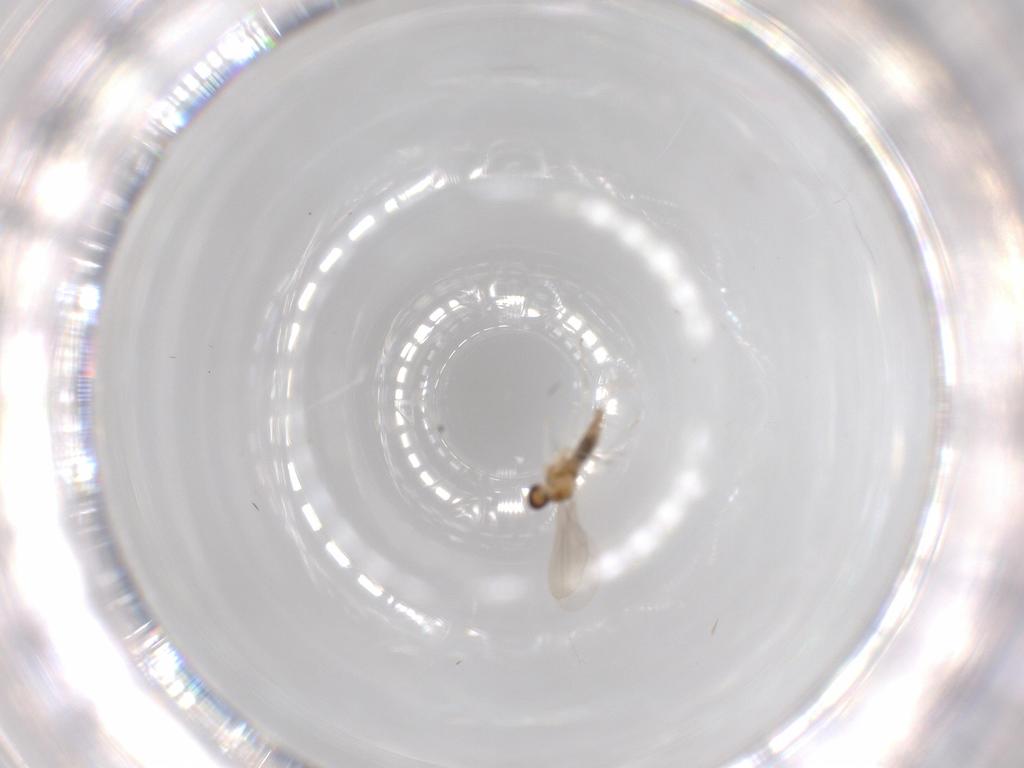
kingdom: Animalia
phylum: Arthropoda
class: Insecta
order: Diptera
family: Cecidomyiidae
